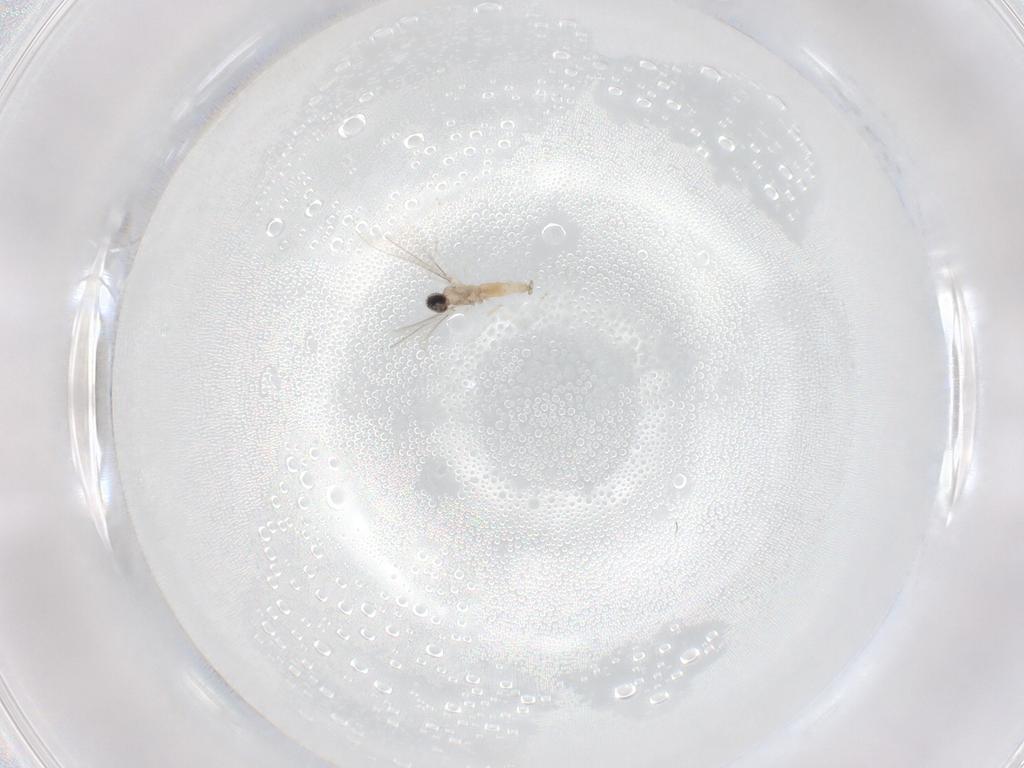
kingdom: Animalia
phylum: Arthropoda
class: Insecta
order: Diptera
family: Cecidomyiidae
